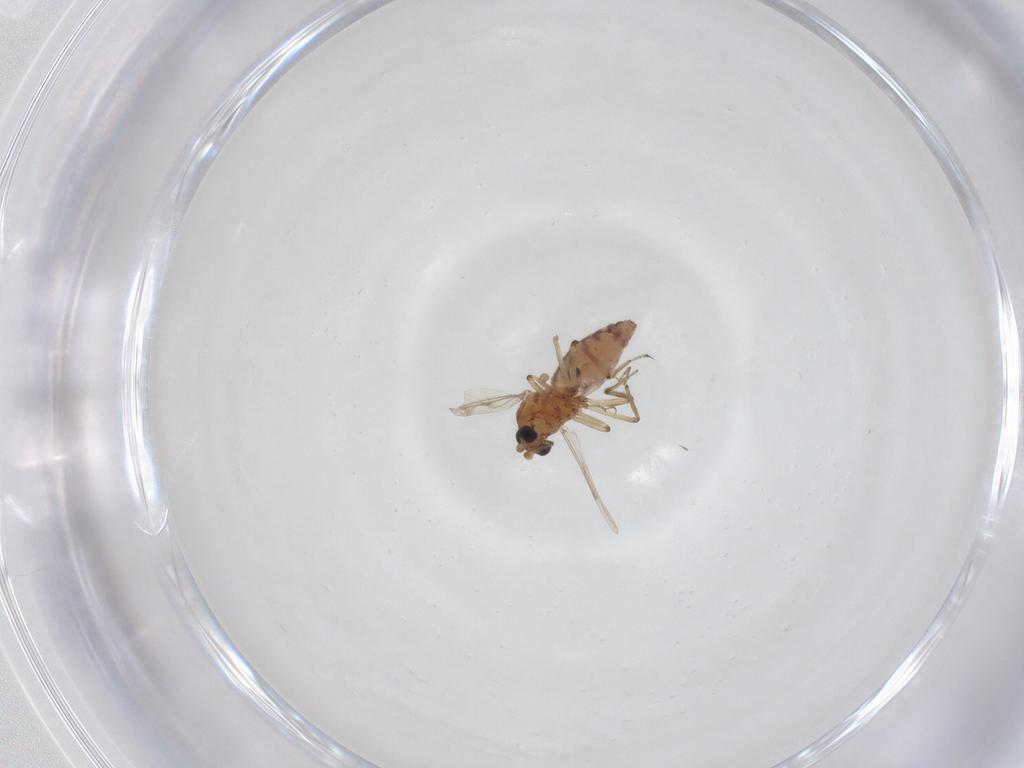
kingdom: Animalia
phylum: Arthropoda
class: Insecta
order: Diptera
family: Ceratopogonidae
